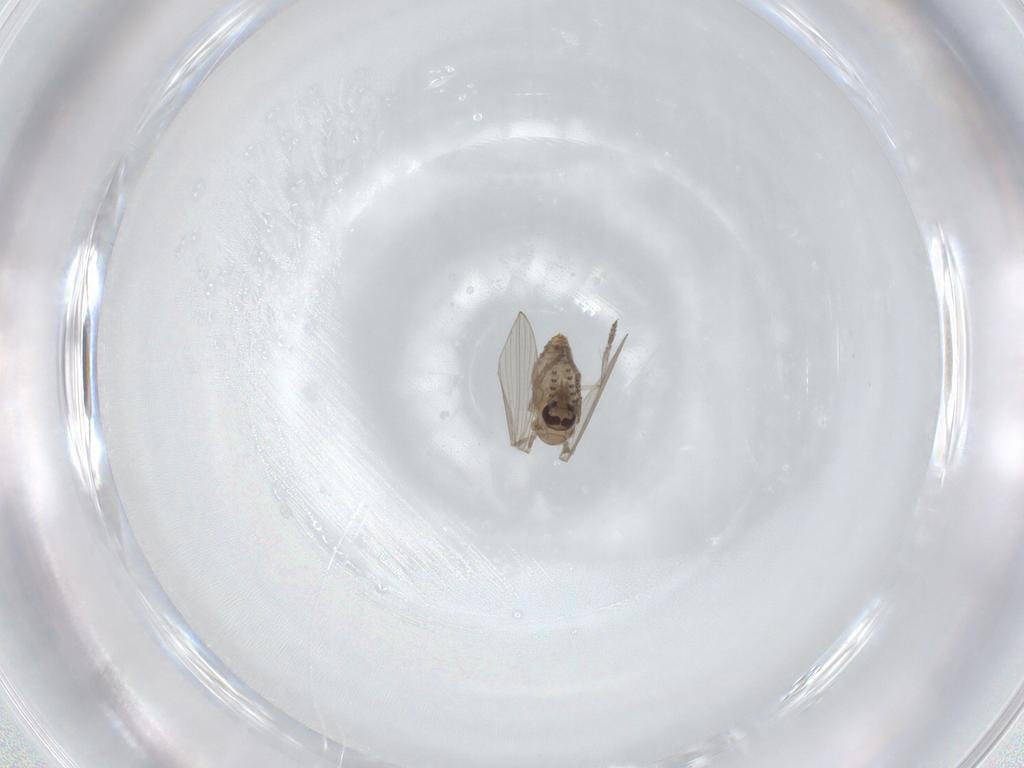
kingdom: Animalia
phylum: Arthropoda
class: Insecta
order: Diptera
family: Psychodidae
